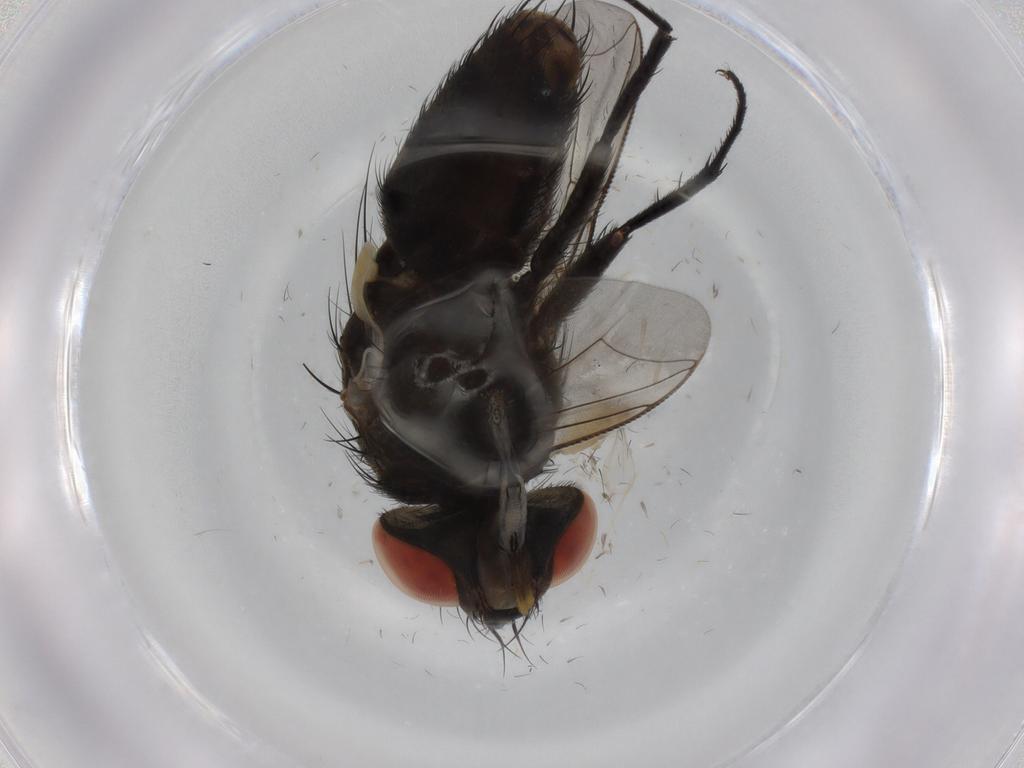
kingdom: Animalia
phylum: Arthropoda
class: Insecta
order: Diptera
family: Sarcophagidae
